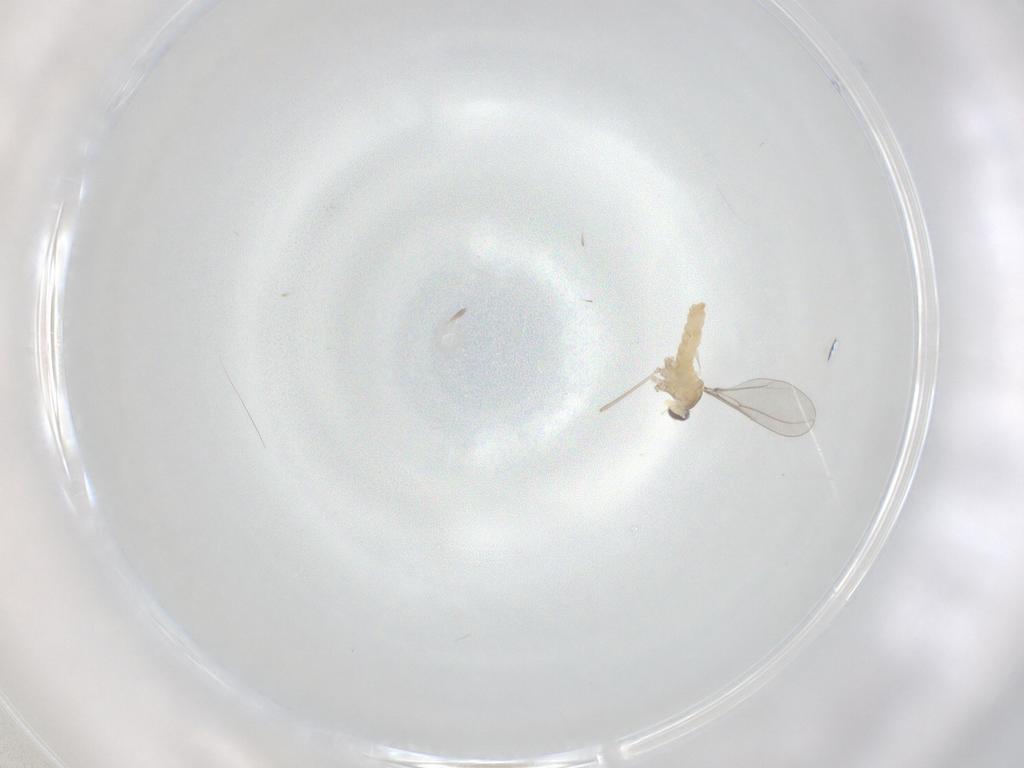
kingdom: Animalia
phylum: Arthropoda
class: Insecta
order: Diptera
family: Cecidomyiidae
